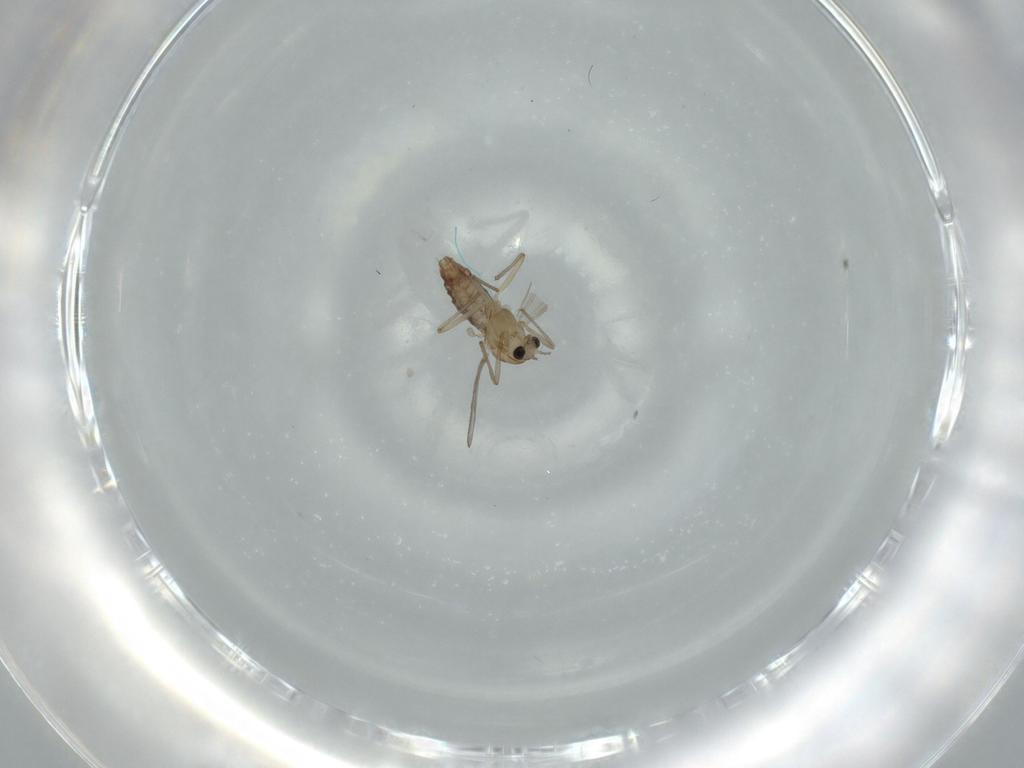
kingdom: Animalia
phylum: Arthropoda
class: Insecta
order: Diptera
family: Chironomidae
